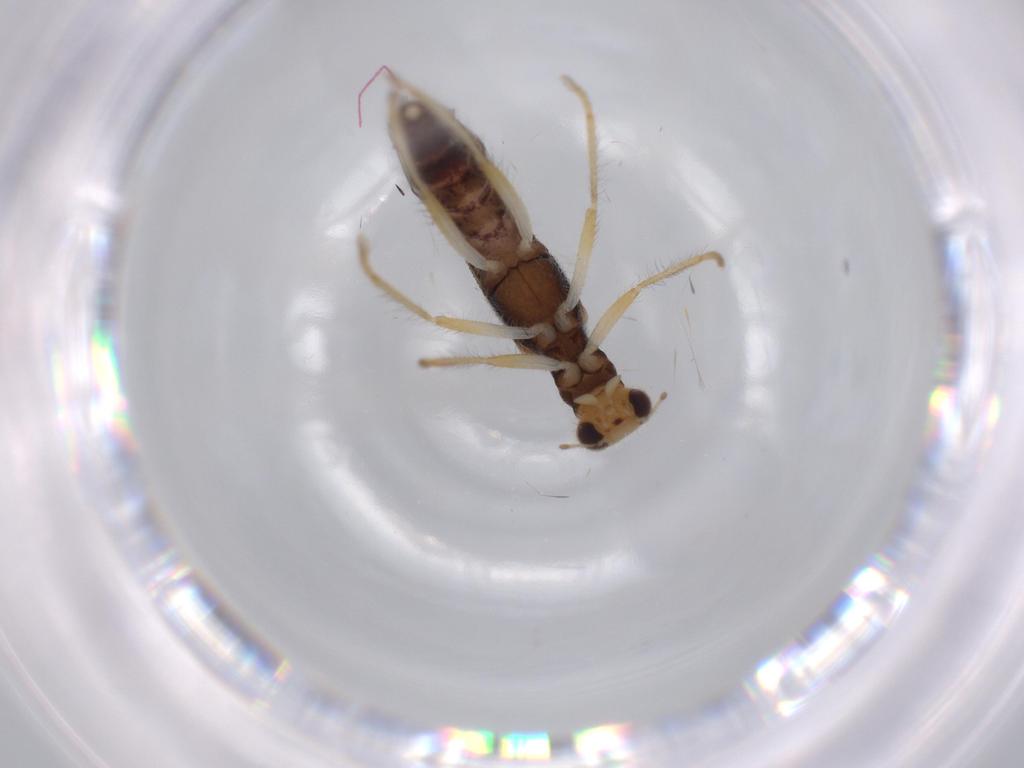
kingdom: Animalia
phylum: Arthropoda
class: Insecta
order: Coleoptera
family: Cleridae
